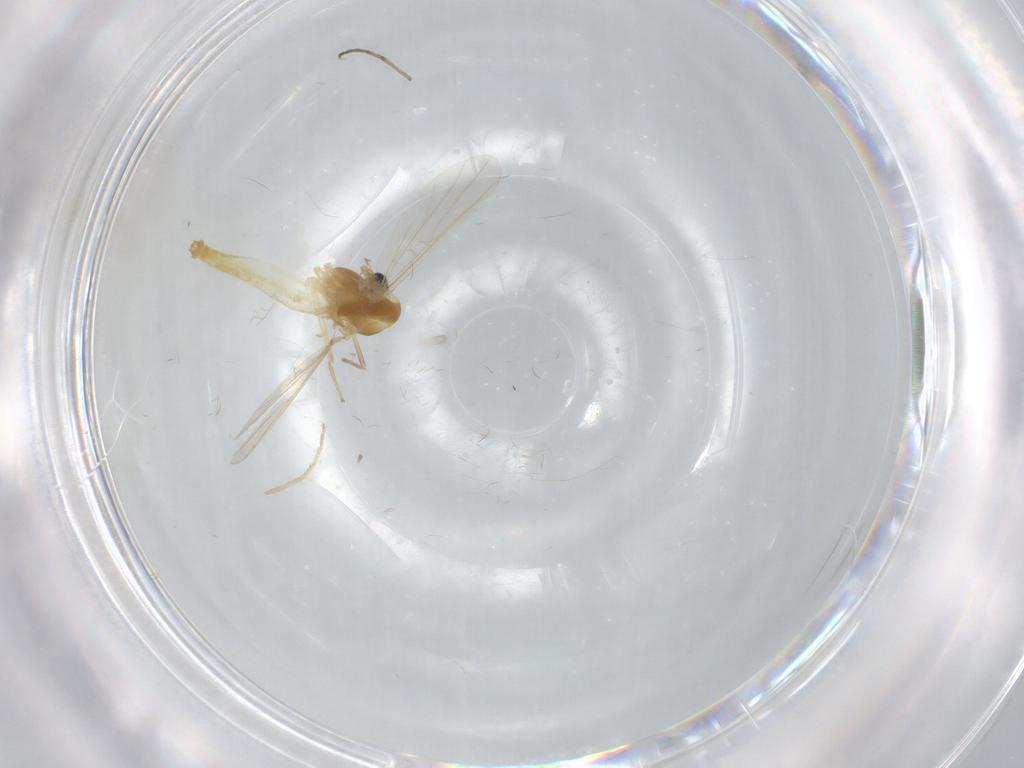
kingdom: Animalia
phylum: Arthropoda
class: Insecta
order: Diptera
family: Chironomidae
